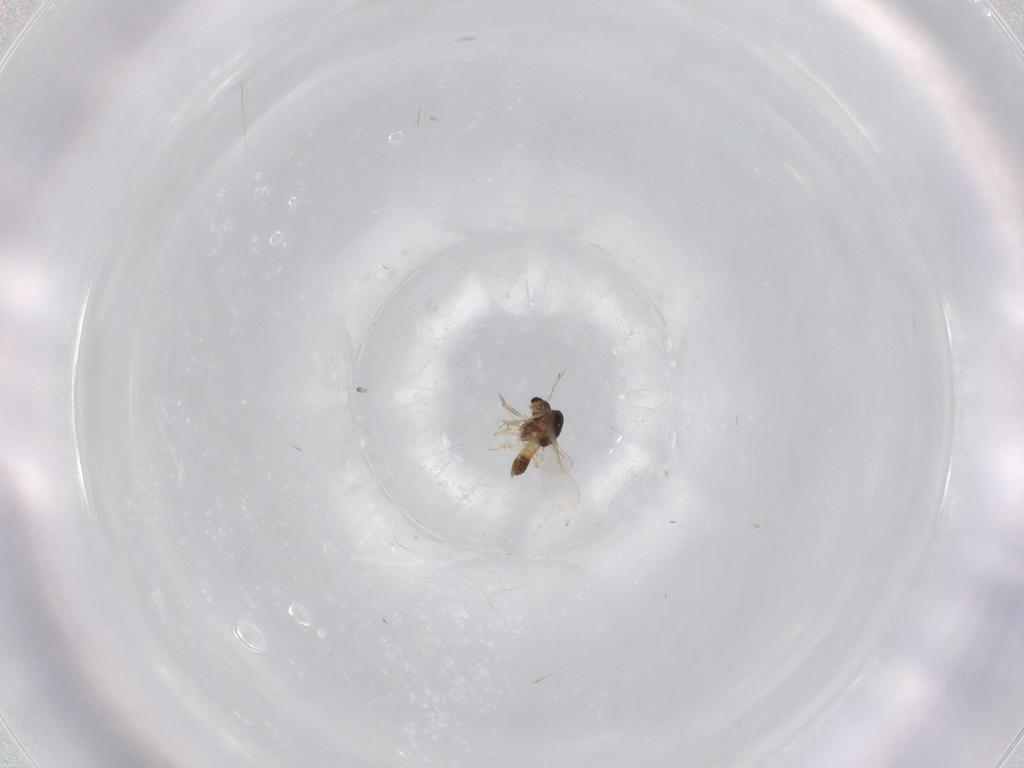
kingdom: Animalia
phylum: Arthropoda
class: Insecta
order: Diptera
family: Chironomidae
